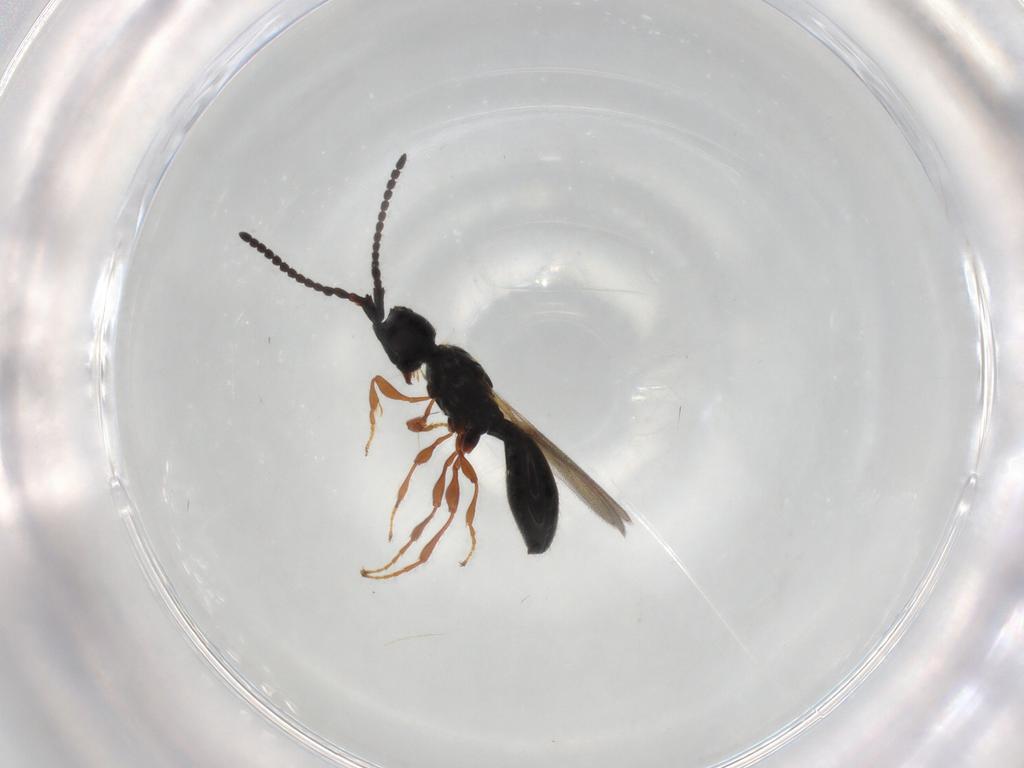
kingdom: Animalia
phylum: Arthropoda
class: Insecta
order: Hymenoptera
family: Diapriidae
